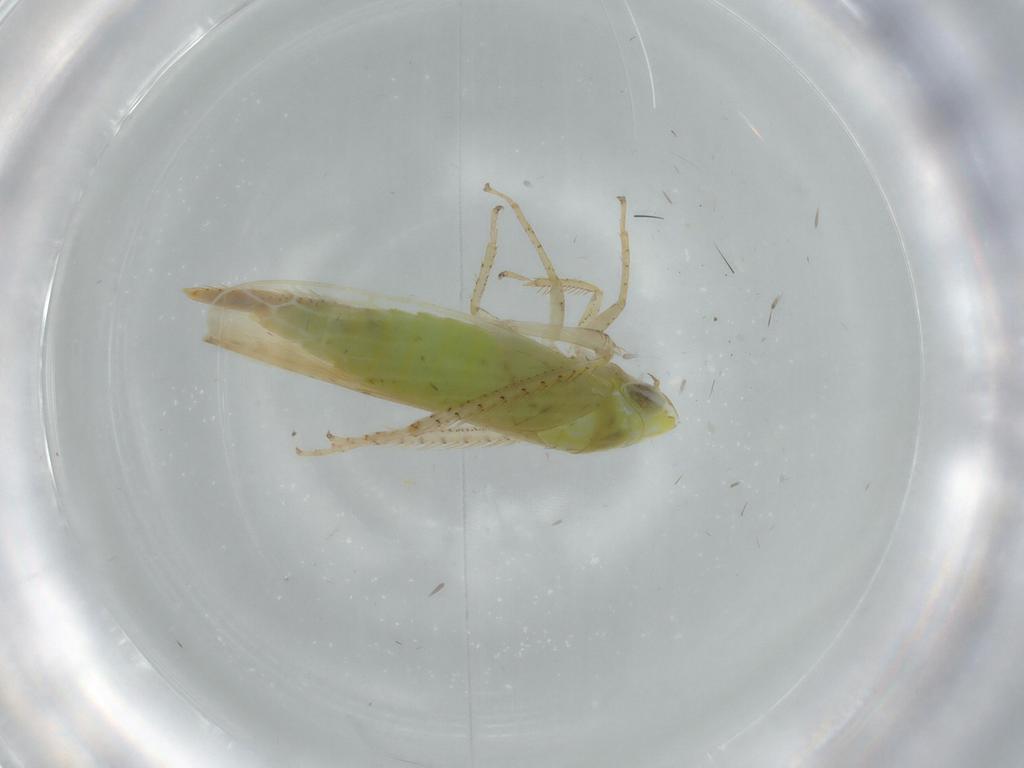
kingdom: Animalia
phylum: Arthropoda
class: Insecta
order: Hemiptera
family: Cicadellidae
